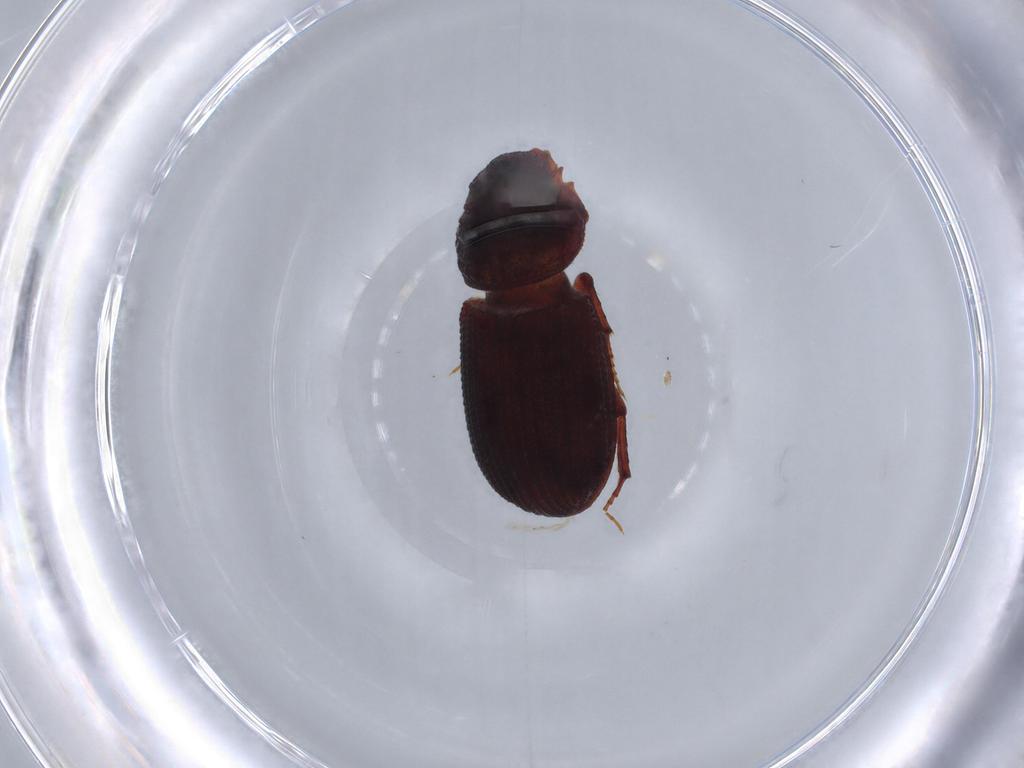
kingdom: Animalia
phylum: Arthropoda
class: Insecta
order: Coleoptera
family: Scarabaeidae
